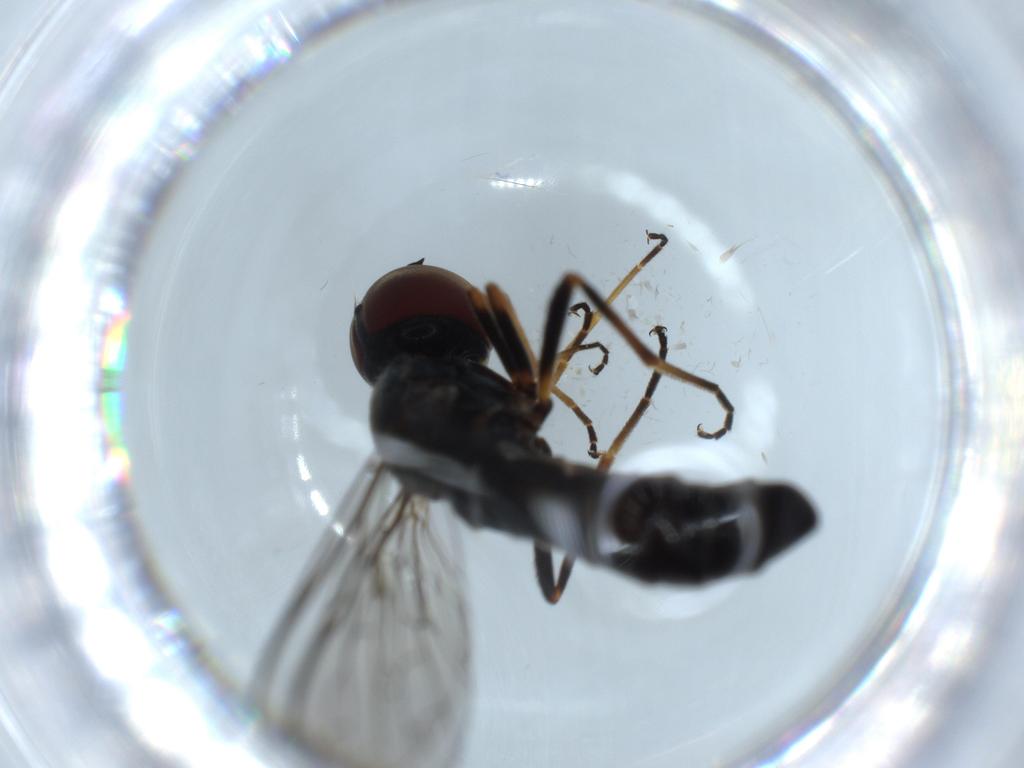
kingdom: Animalia
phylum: Arthropoda
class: Insecta
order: Diptera
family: Bombyliidae
